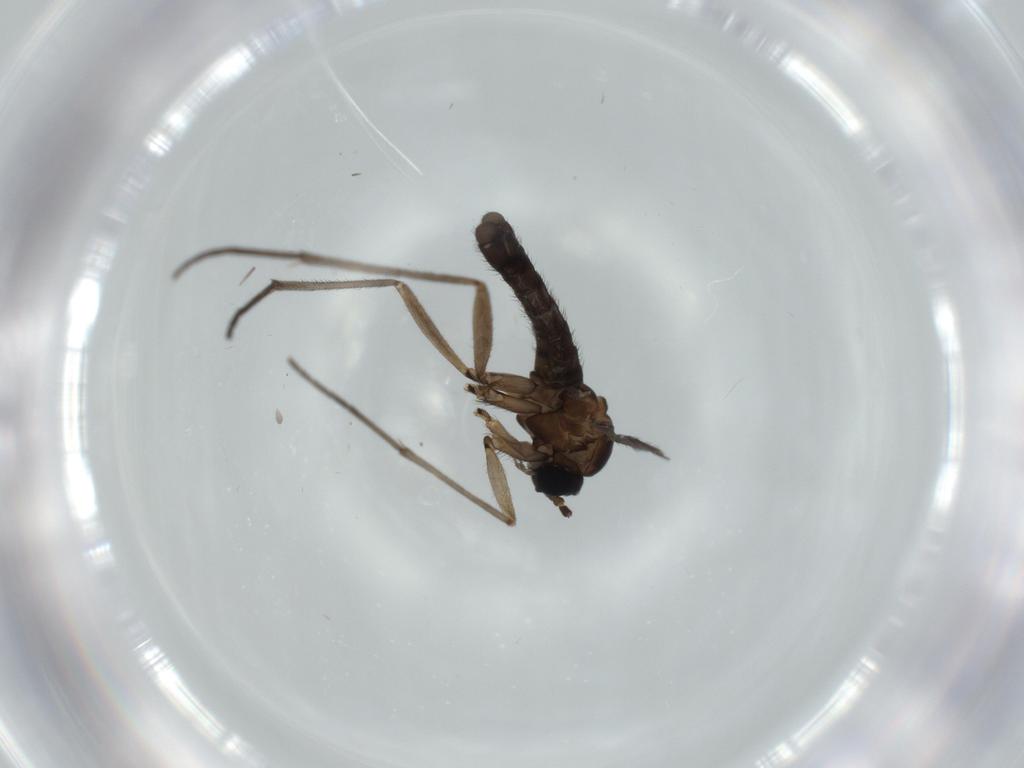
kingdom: Animalia
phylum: Arthropoda
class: Insecta
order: Diptera
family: Sciaridae
